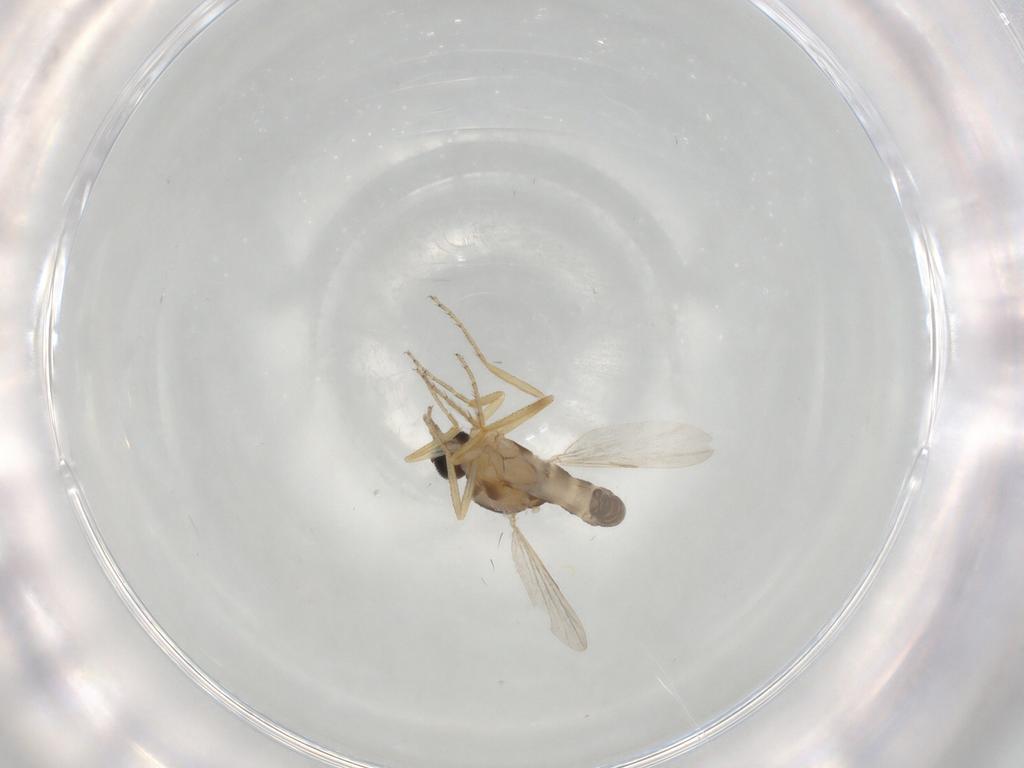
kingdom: Animalia
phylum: Arthropoda
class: Insecta
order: Diptera
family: Ceratopogonidae
